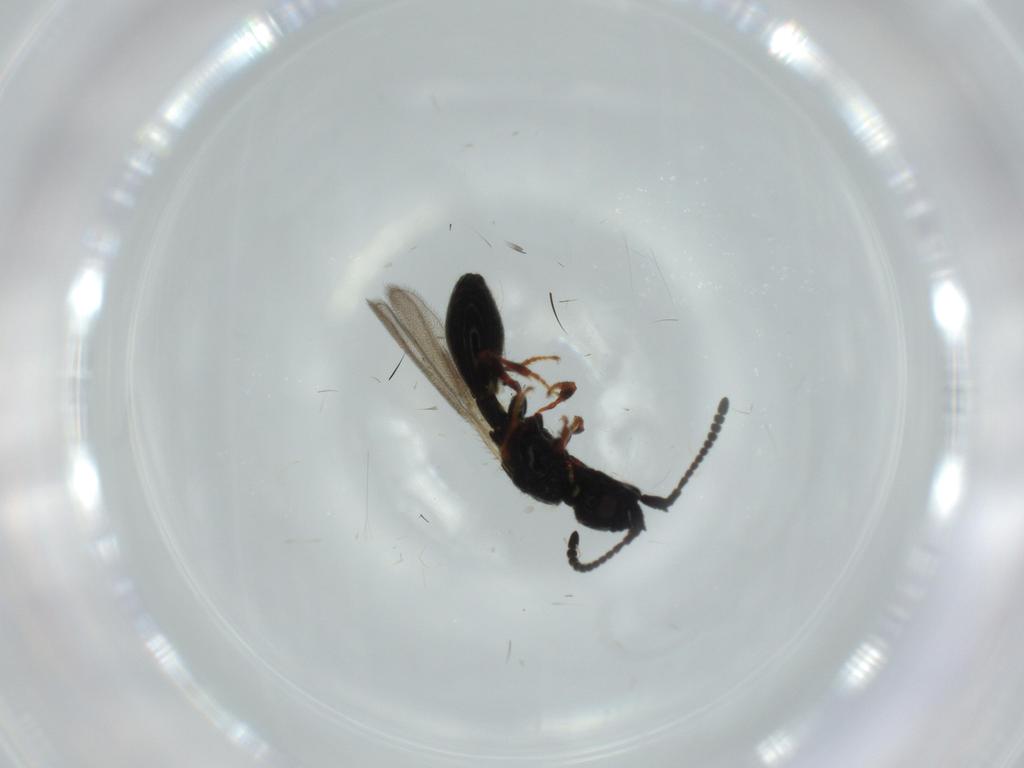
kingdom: Animalia
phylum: Arthropoda
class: Insecta
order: Hymenoptera
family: Diapriidae
